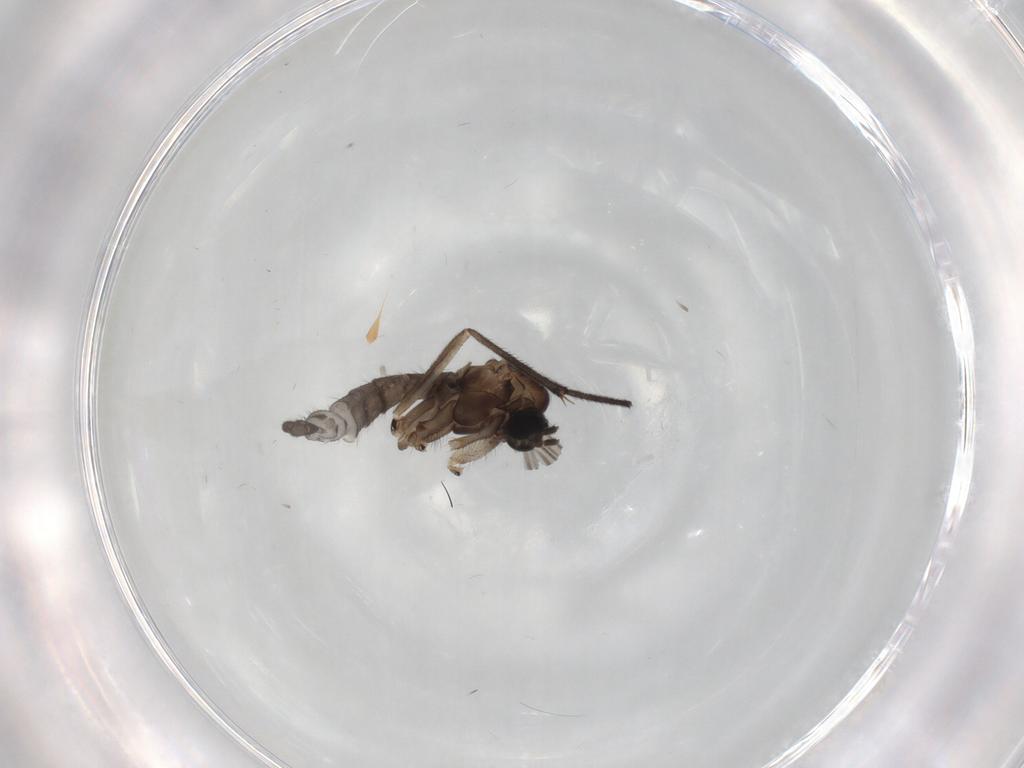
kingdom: Animalia
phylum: Arthropoda
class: Insecta
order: Diptera
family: Sciaridae
